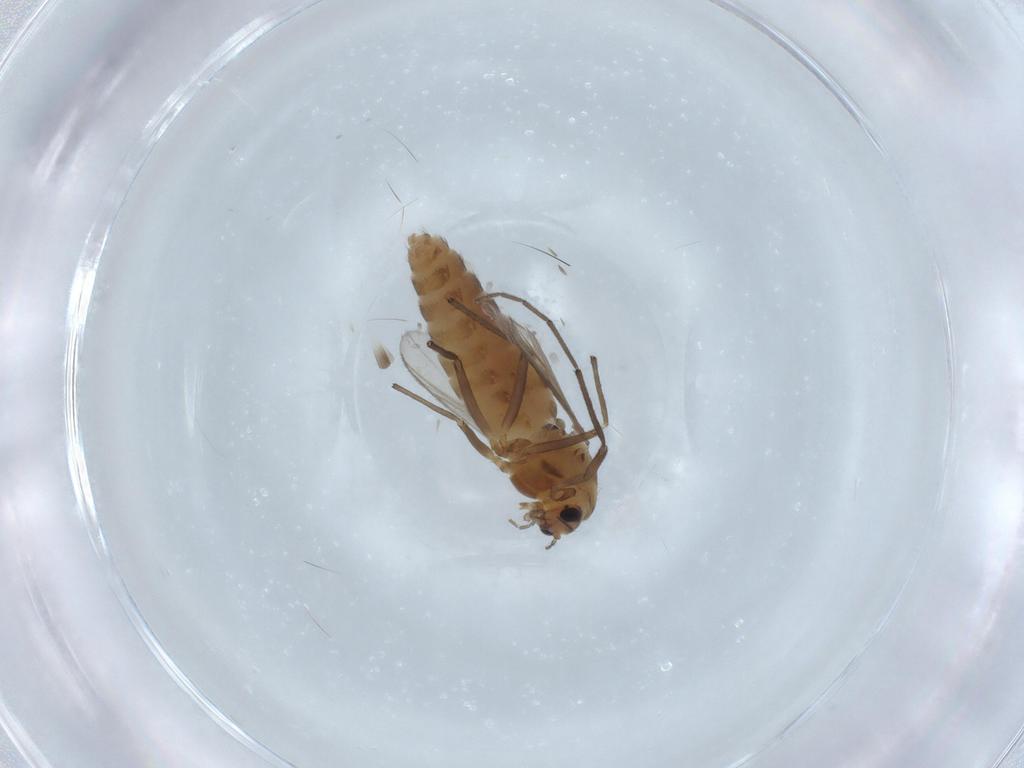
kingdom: Animalia
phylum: Arthropoda
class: Insecta
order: Diptera
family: Chironomidae
